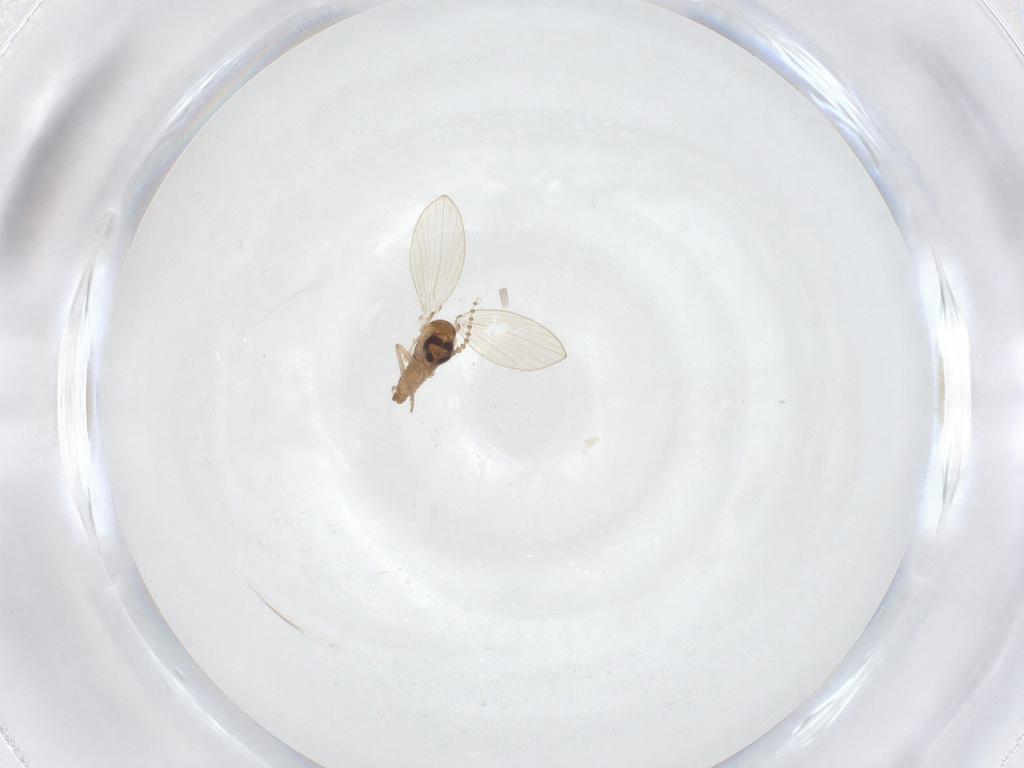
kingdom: Animalia
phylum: Arthropoda
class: Insecta
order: Diptera
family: Psychodidae
